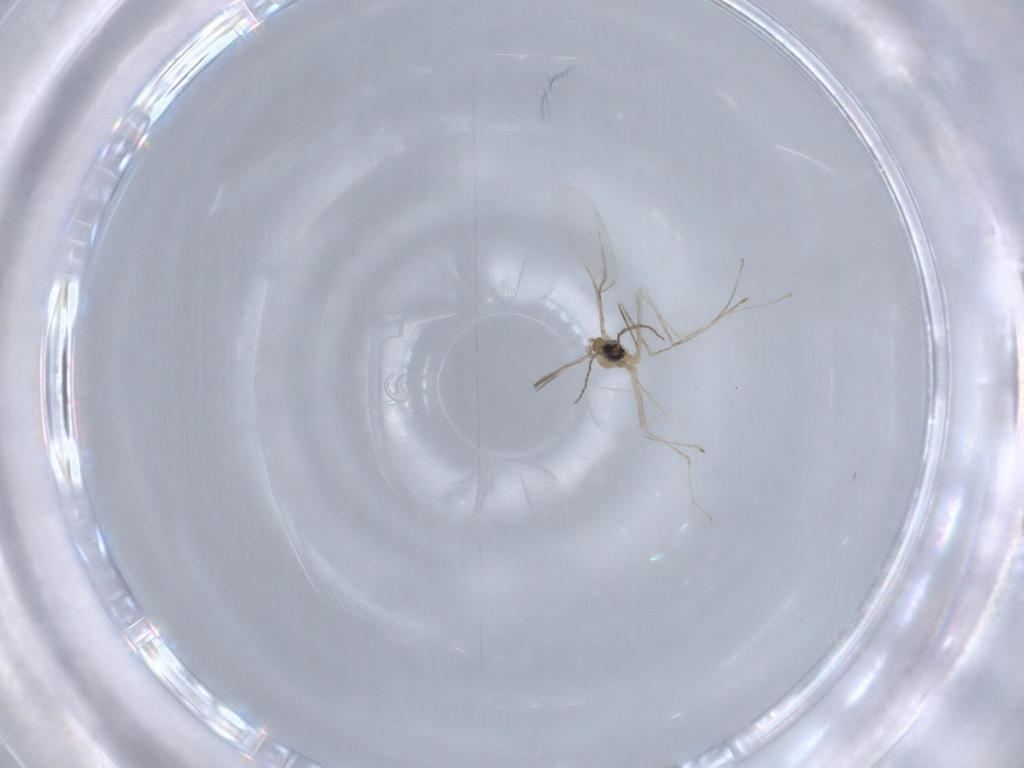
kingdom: Animalia
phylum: Arthropoda
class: Insecta
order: Diptera
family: Cecidomyiidae
